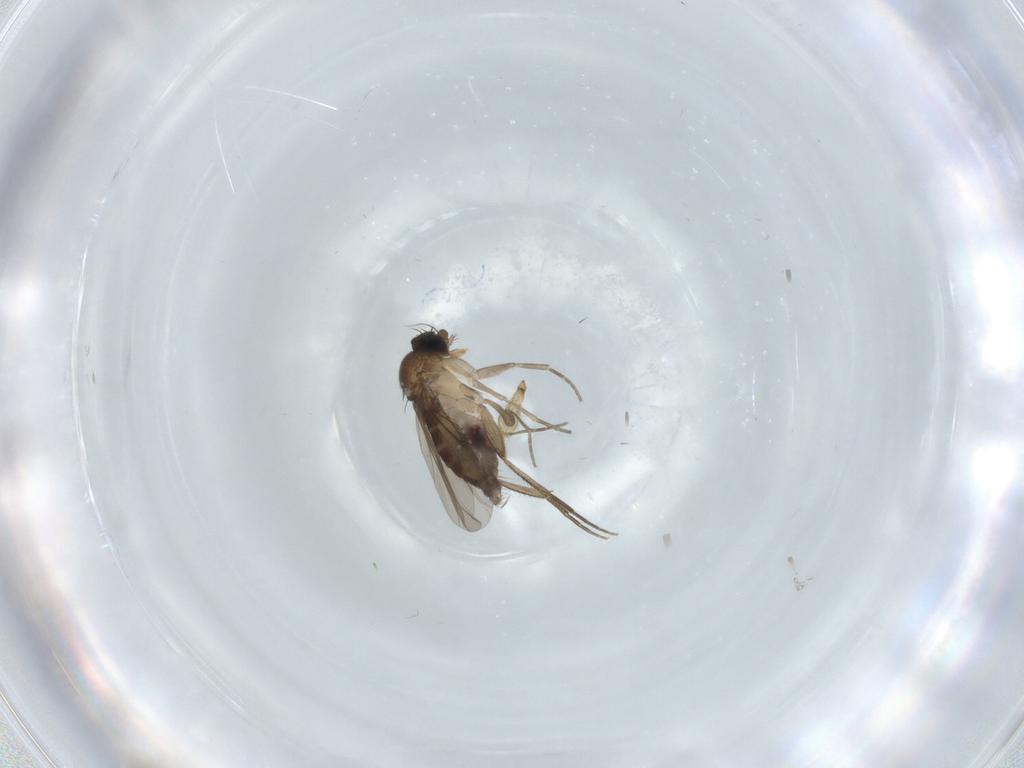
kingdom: Animalia
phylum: Arthropoda
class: Insecta
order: Diptera
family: Phoridae
